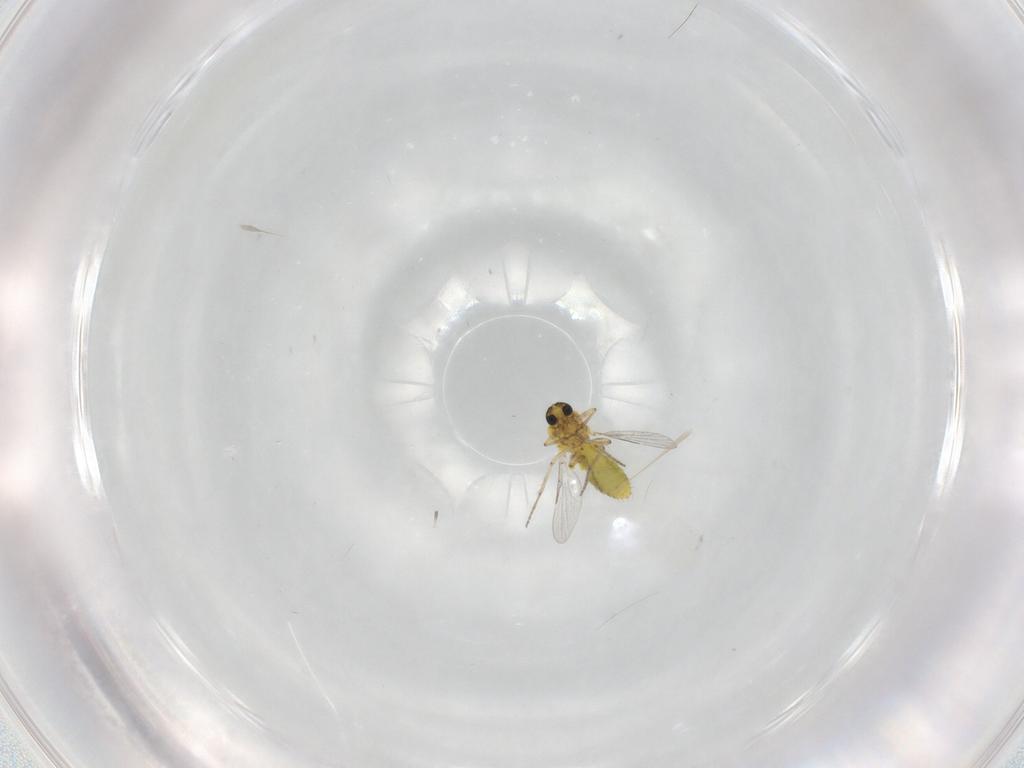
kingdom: Animalia
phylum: Arthropoda
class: Insecta
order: Diptera
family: Ceratopogonidae
